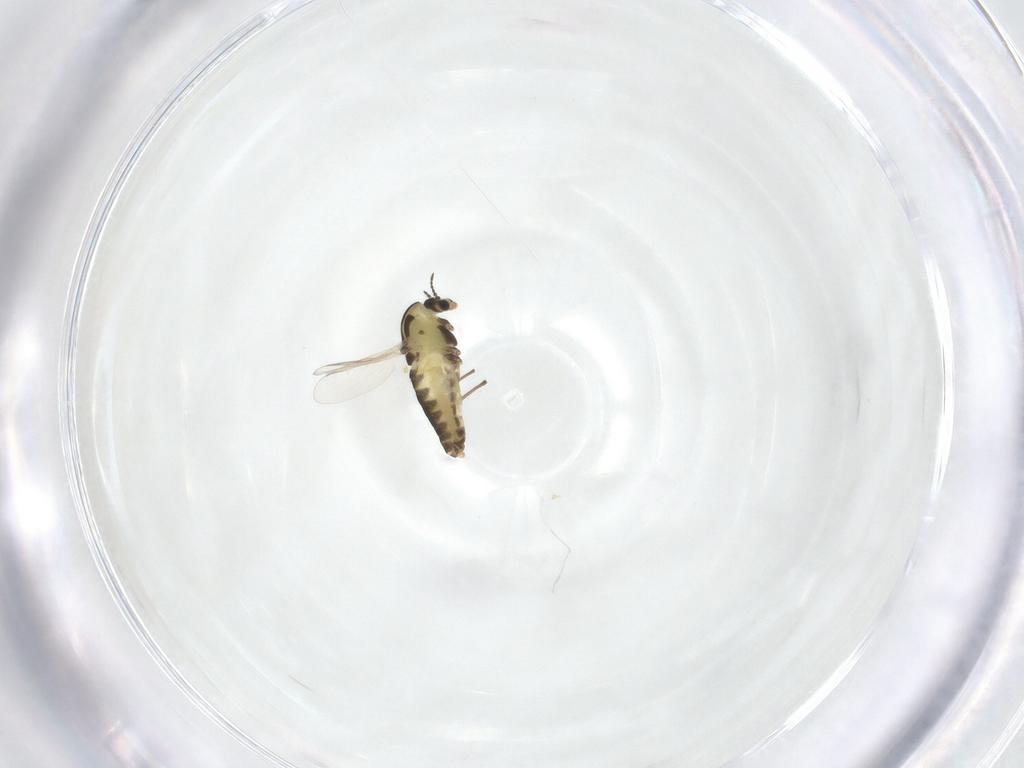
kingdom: Animalia
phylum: Arthropoda
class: Insecta
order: Diptera
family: Chironomidae
